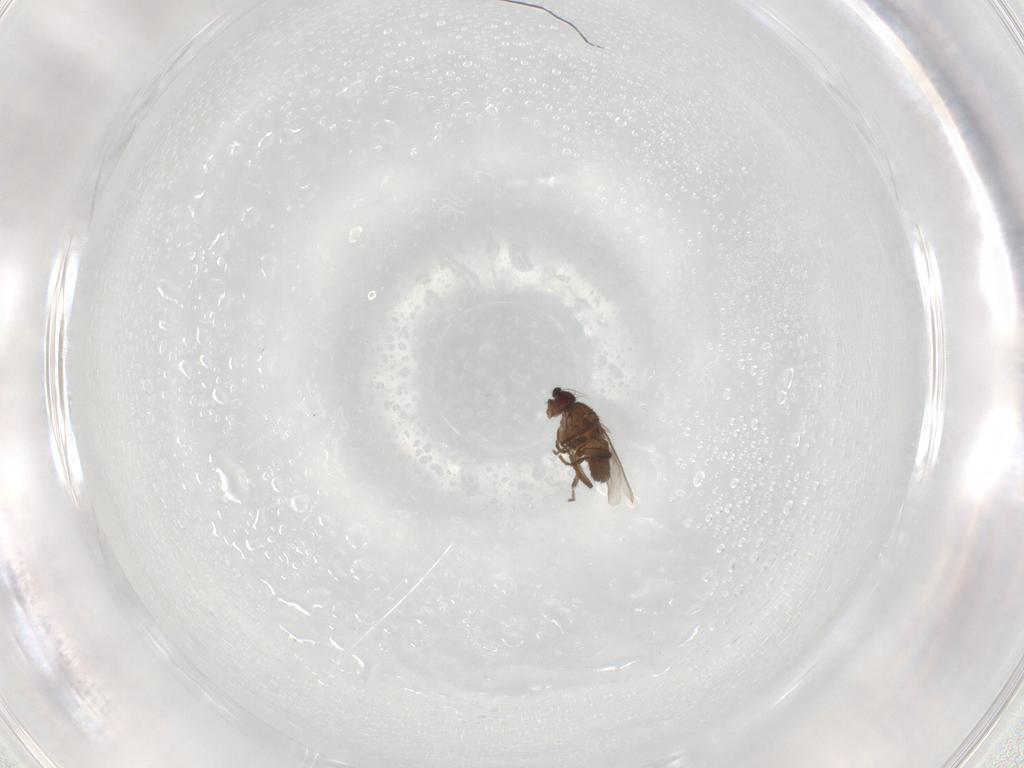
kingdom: Animalia
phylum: Arthropoda
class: Insecta
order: Diptera
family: Sphaeroceridae
